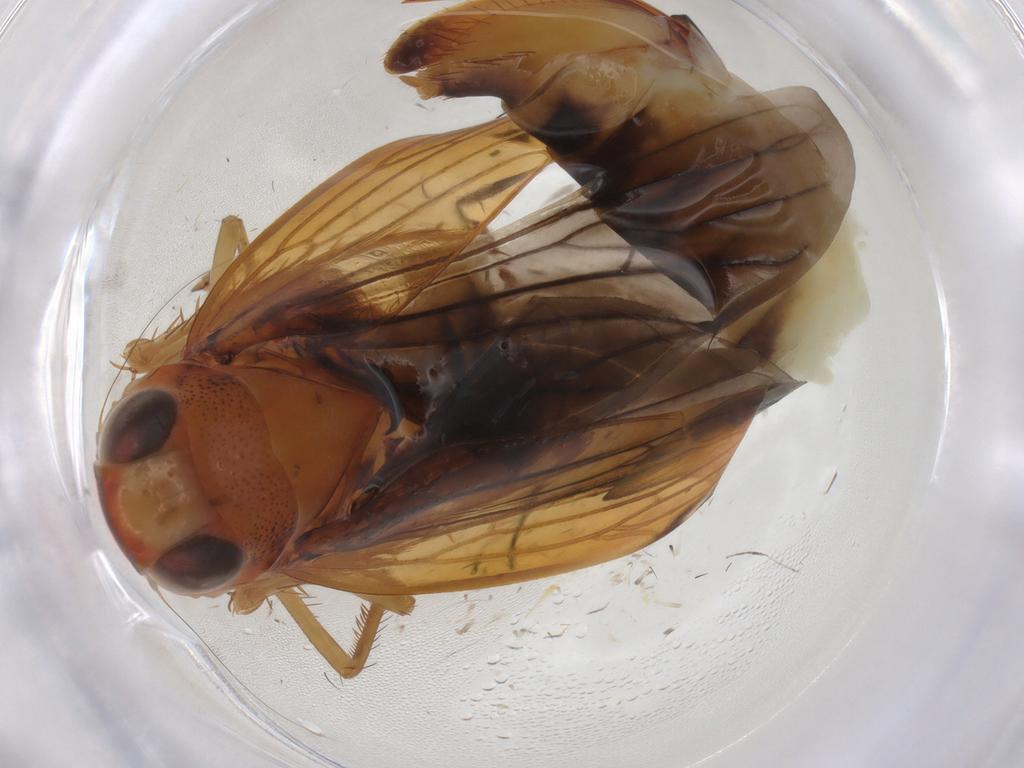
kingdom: Animalia
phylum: Arthropoda
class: Insecta
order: Hemiptera
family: Cicadellidae
